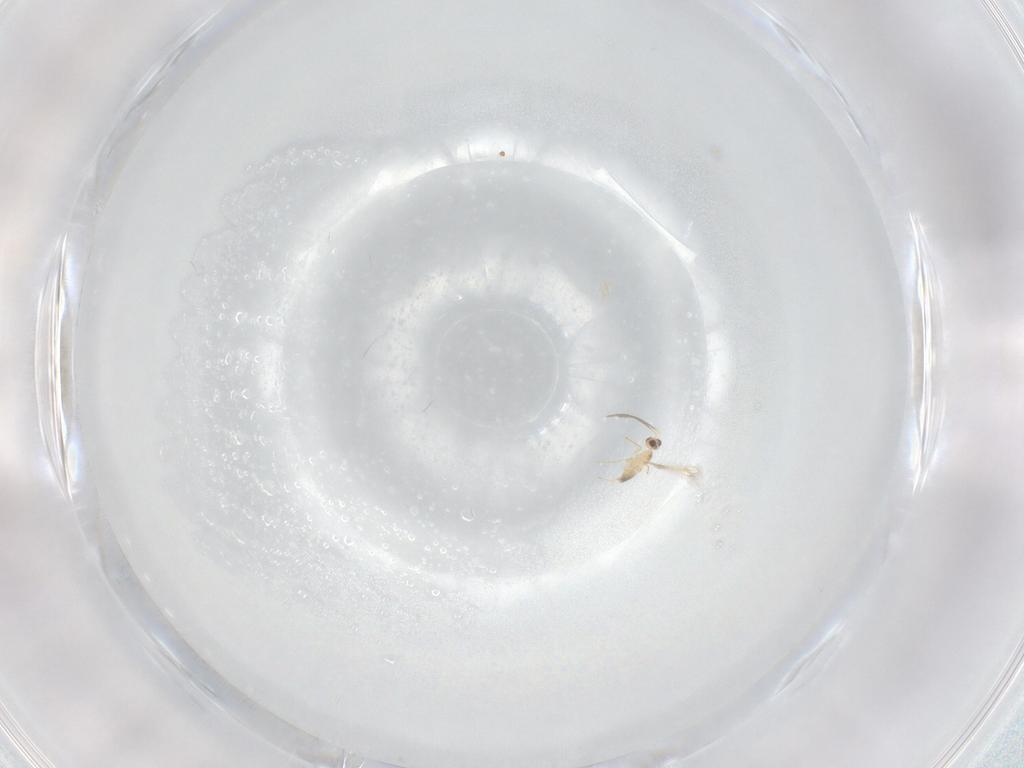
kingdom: Animalia
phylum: Arthropoda
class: Insecta
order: Hymenoptera
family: Mymaridae
